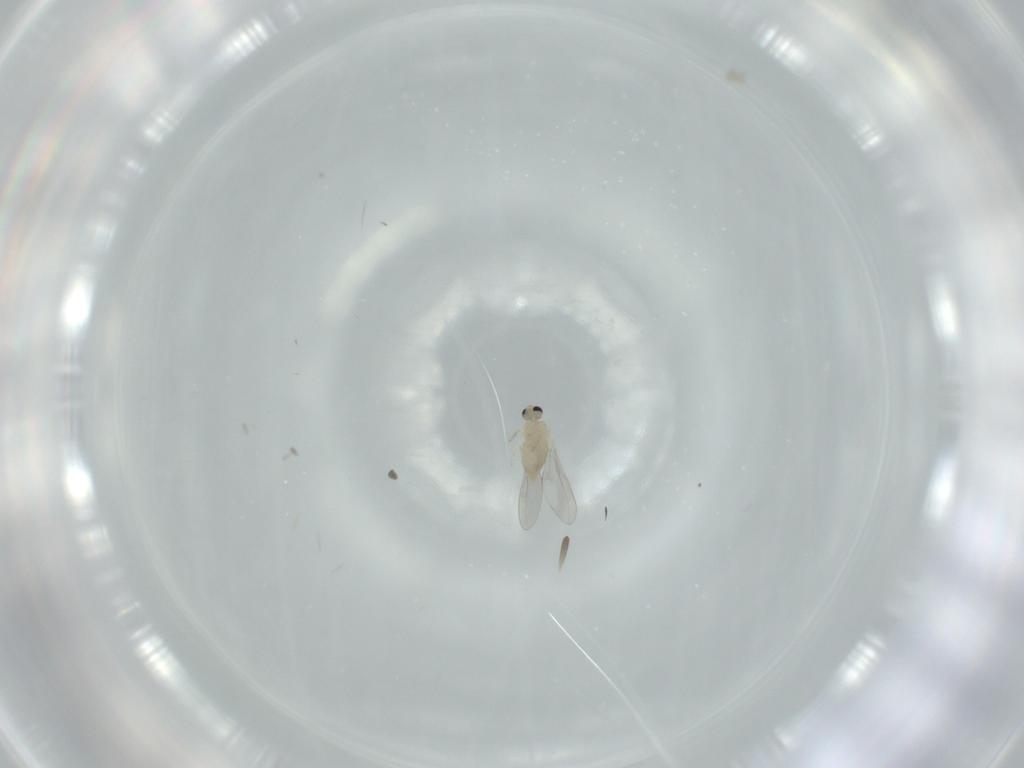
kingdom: Animalia
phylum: Arthropoda
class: Insecta
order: Diptera
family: Cecidomyiidae
